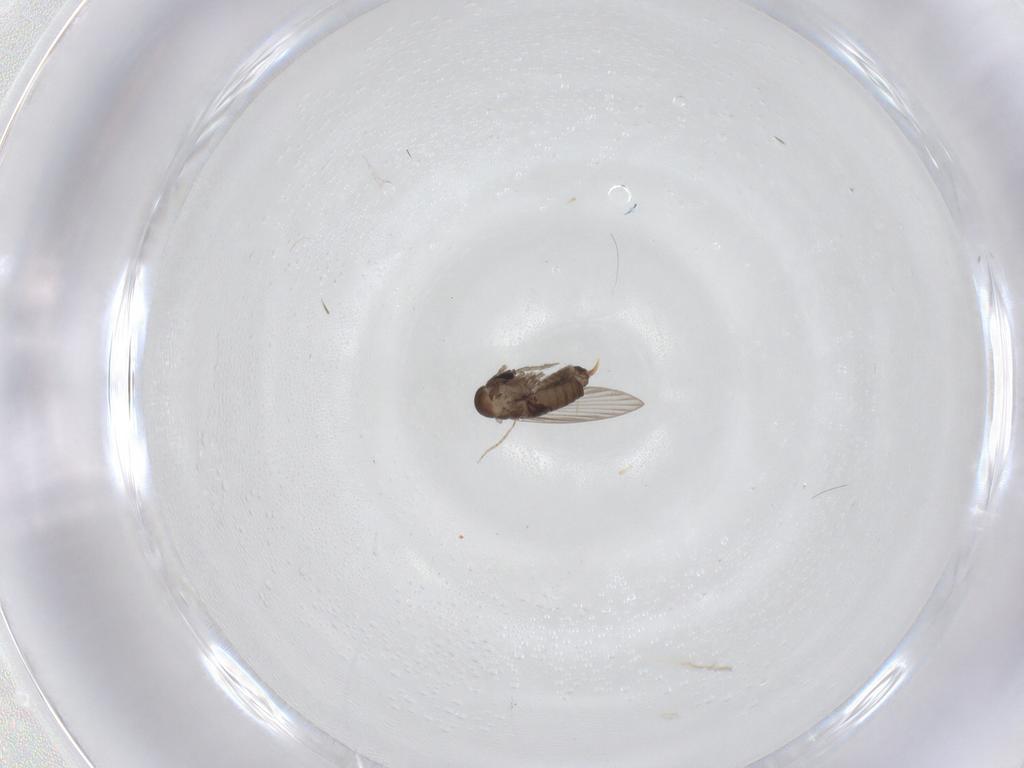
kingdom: Animalia
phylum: Arthropoda
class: Insecta
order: Diptera
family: Psychodidae
